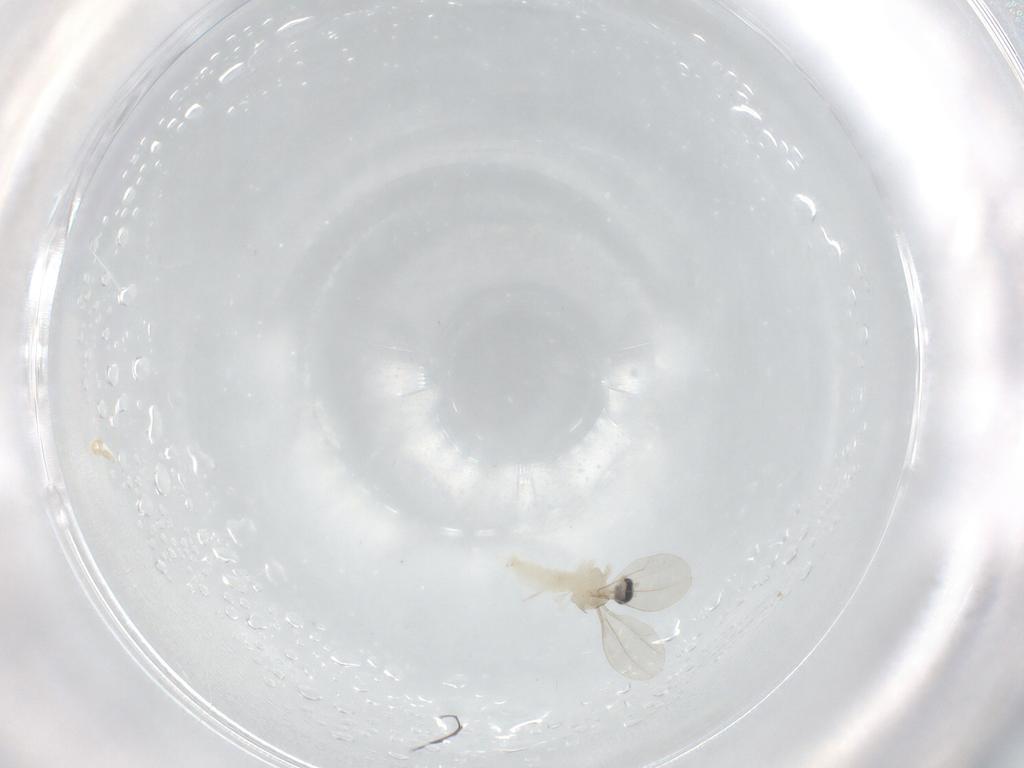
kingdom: Animalia
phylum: Arthropoda
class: Insecta
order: Diptera
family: Cecidomyiidae
